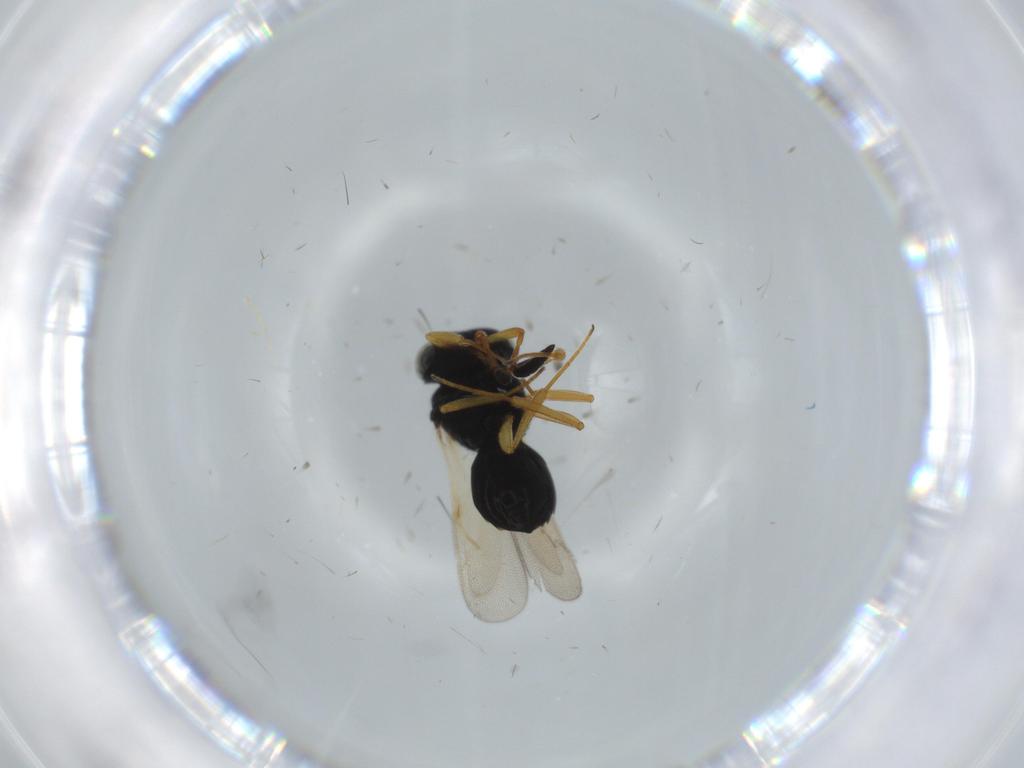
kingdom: Animalia
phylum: Arthropoda
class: Insecta
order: Hymenoptera
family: Scelionidae
